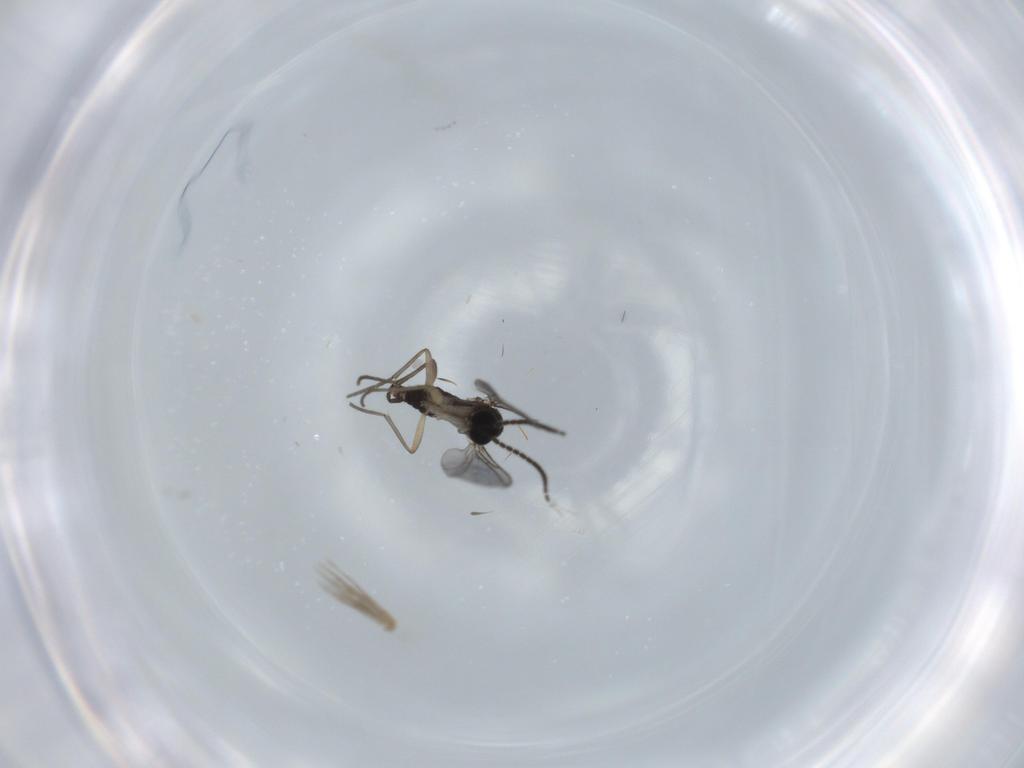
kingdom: Animalia
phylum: Arthropoda
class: Insecta
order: Diptera
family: Sciaridae
